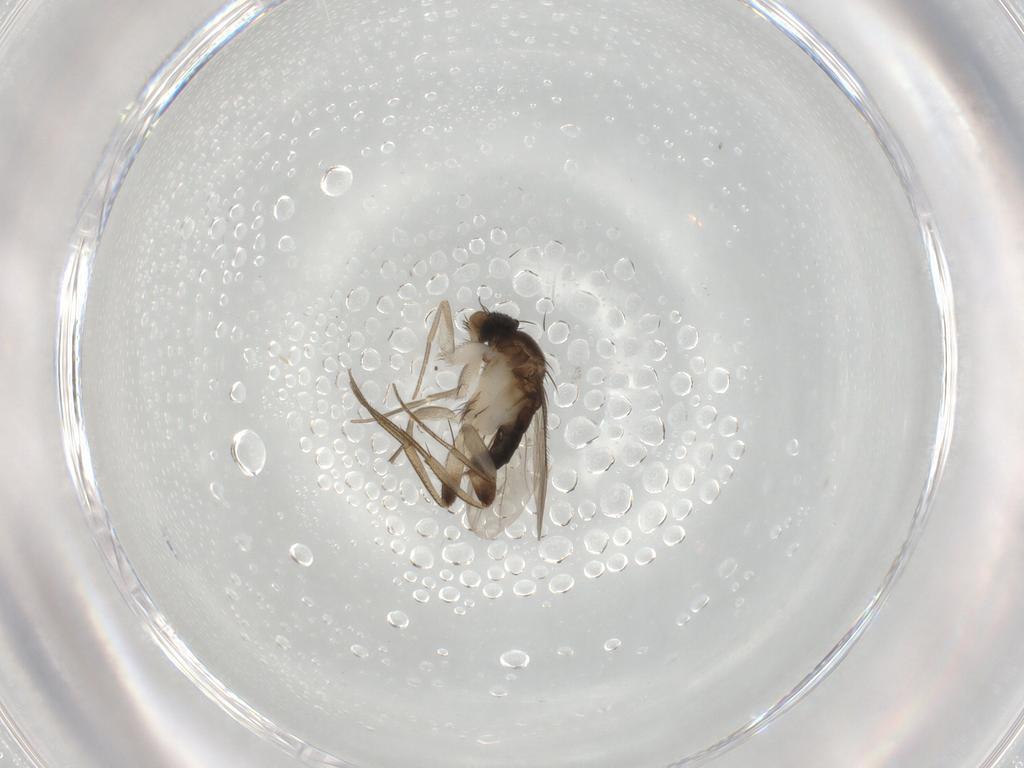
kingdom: Animalia
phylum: Arthropoda
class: Insecta
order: Diptera
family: Phoridae
